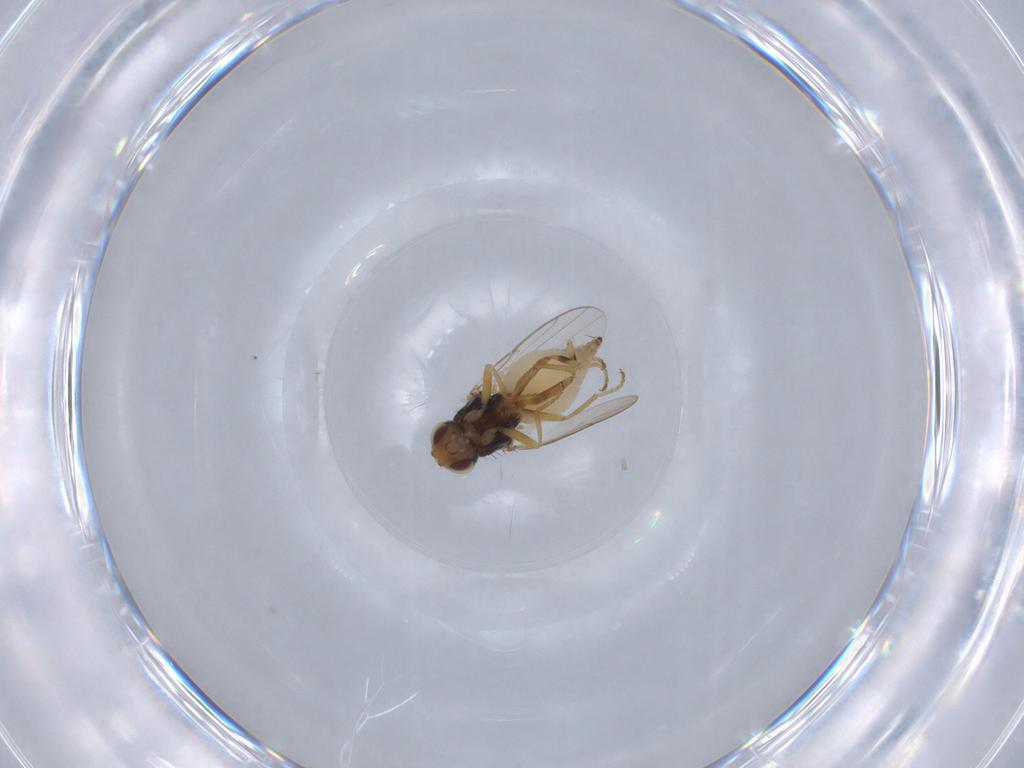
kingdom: Animalia
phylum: Arthropoda
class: Insecta
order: Diptera
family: Chloropidae
